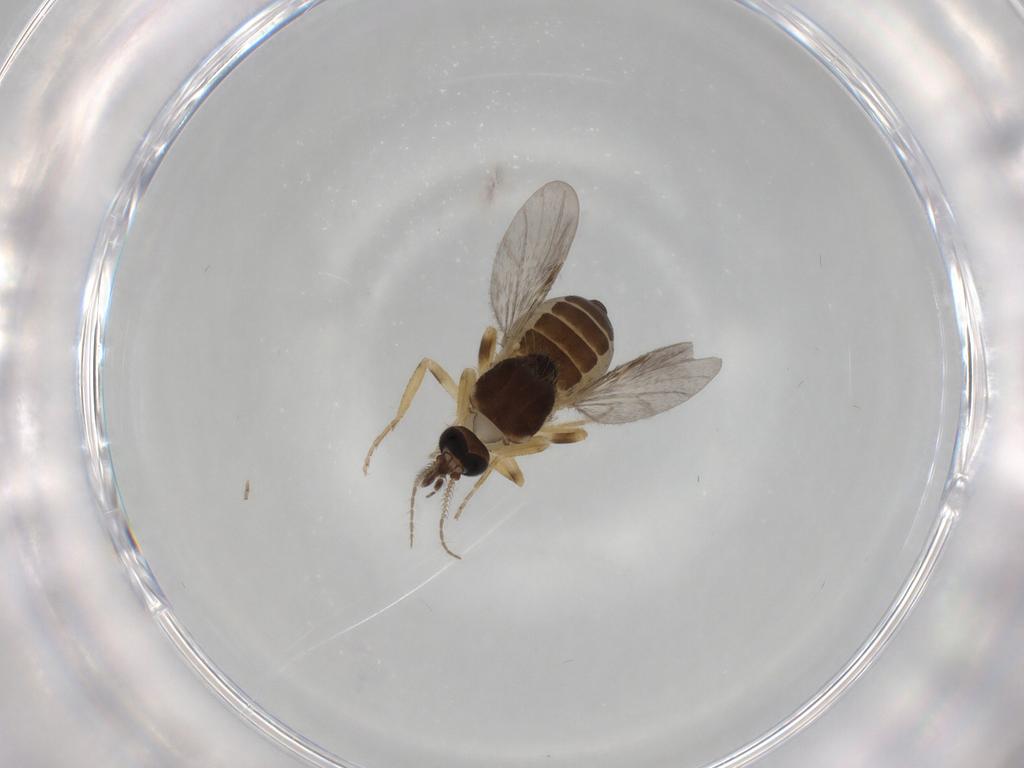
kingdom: Animalia
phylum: Arthropoda
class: Insecta
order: Diptera
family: Ceratopogonidae
